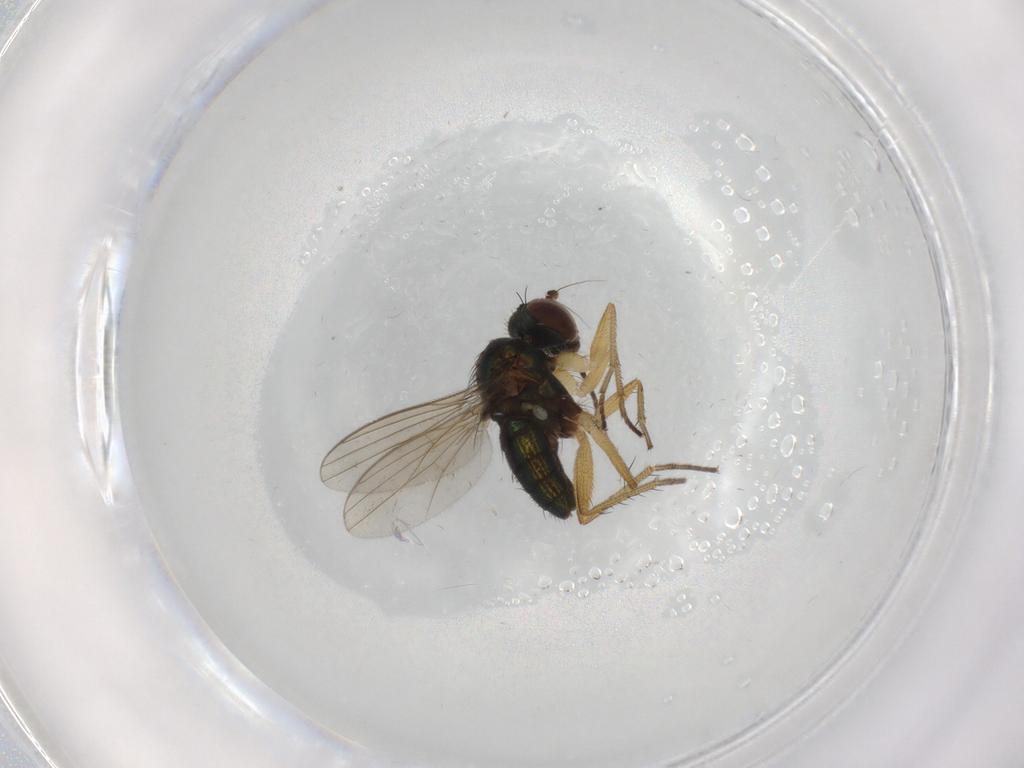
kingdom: Animalia
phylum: Arthropoda
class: Insecta
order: Diptera
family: Dolichopodidae
